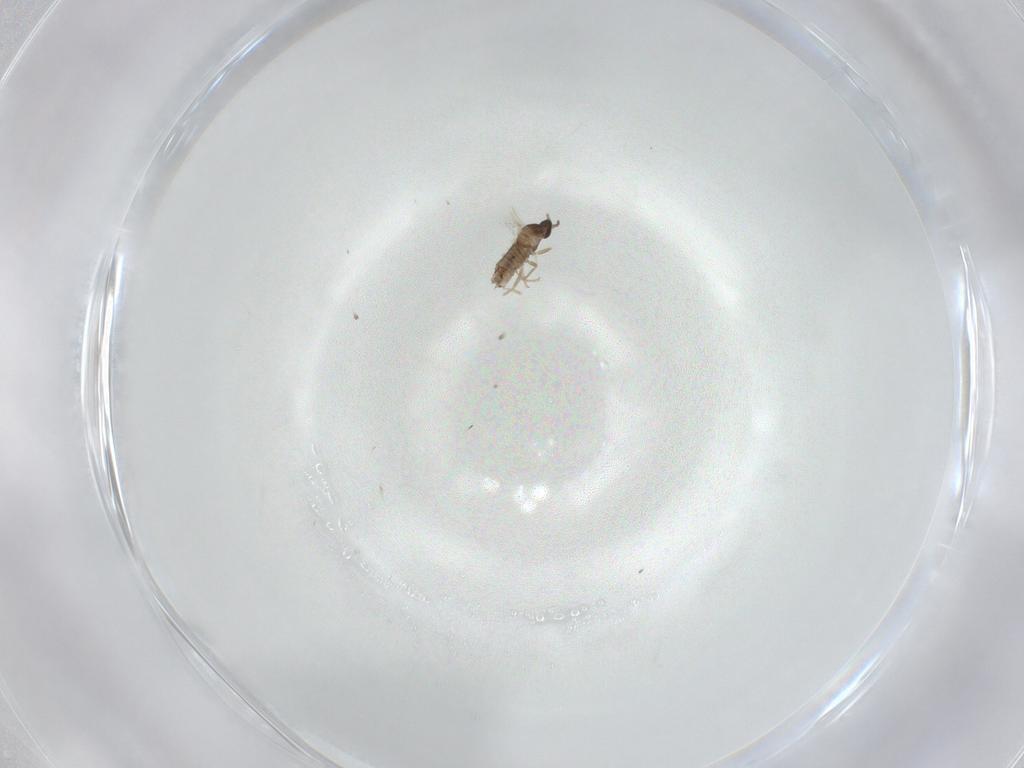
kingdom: Animalia
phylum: Arthropoda
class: Insecta
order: Diptera
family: Cecidomyiidae
